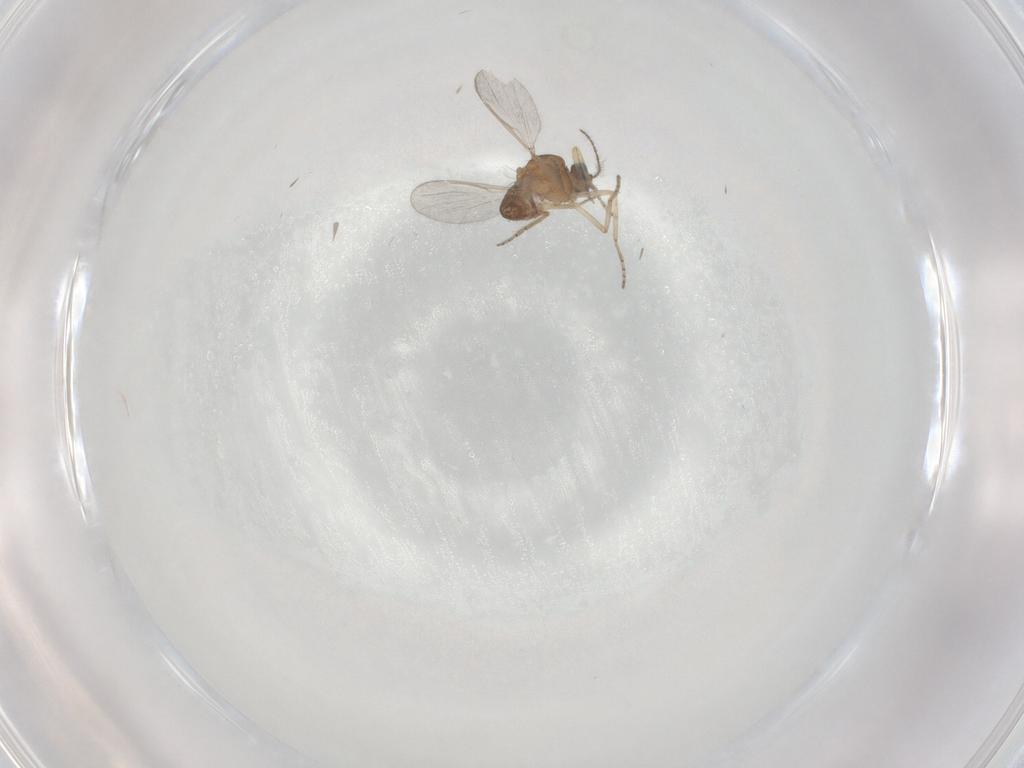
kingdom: Animalia
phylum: Arthropoda
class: Insecta
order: Diptera
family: Ceratopogonidae
